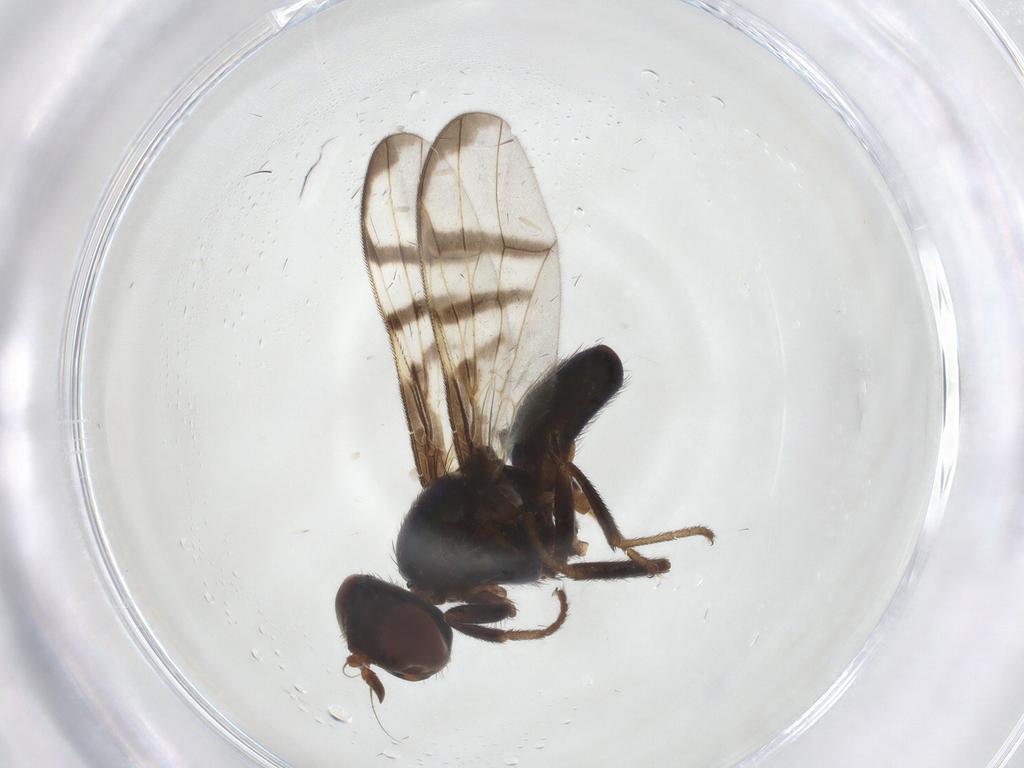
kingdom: Animalia
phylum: Arthropoda
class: Insecta
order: Diptera
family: Platystomatidae
